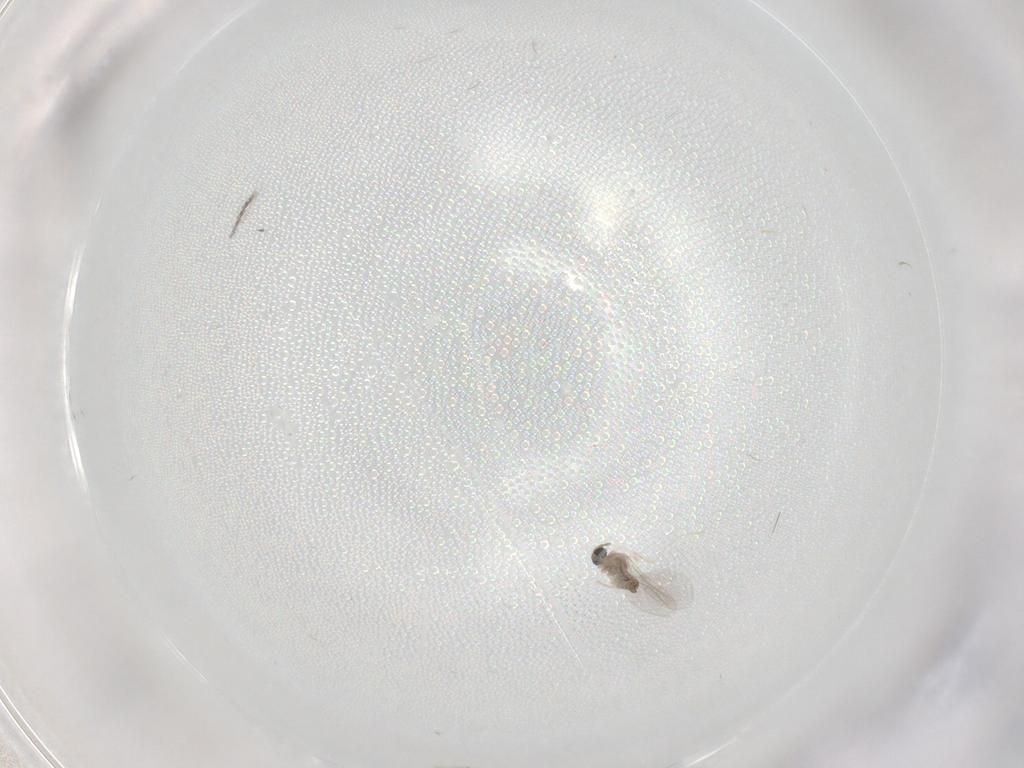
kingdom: Animalia
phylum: Arthropoda
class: Insecta
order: Diptera
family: Cecidomyiidae
